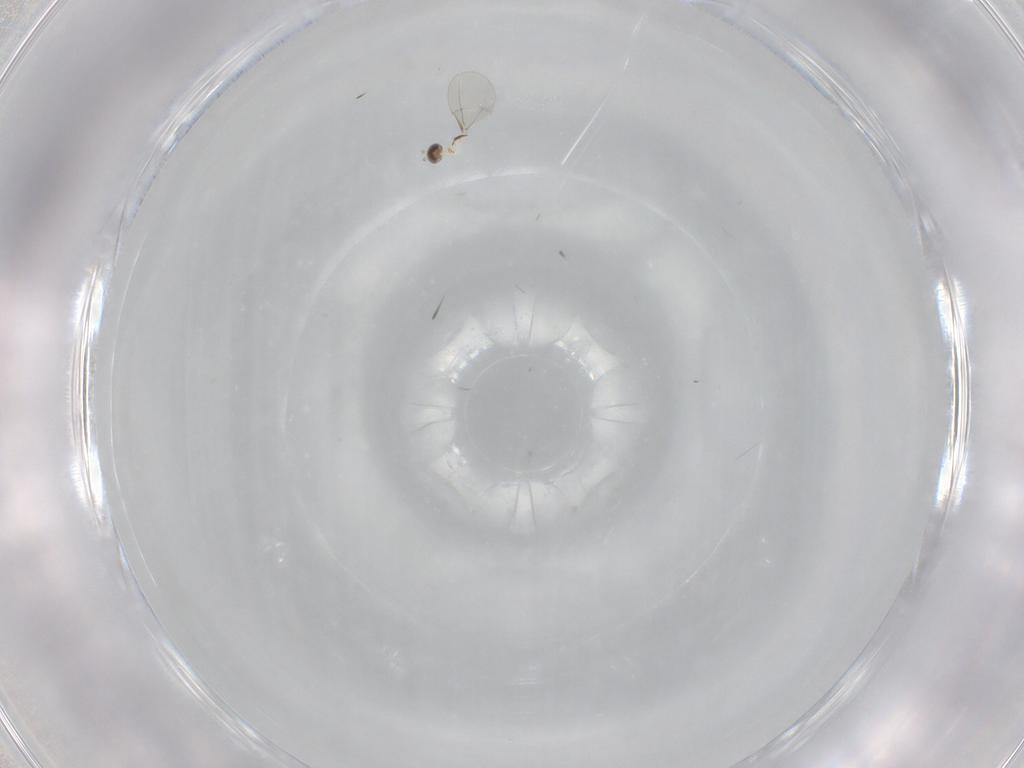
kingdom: Animalia
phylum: Arthropoda
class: Insecta
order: Diptera
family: Cecidomyiidae
